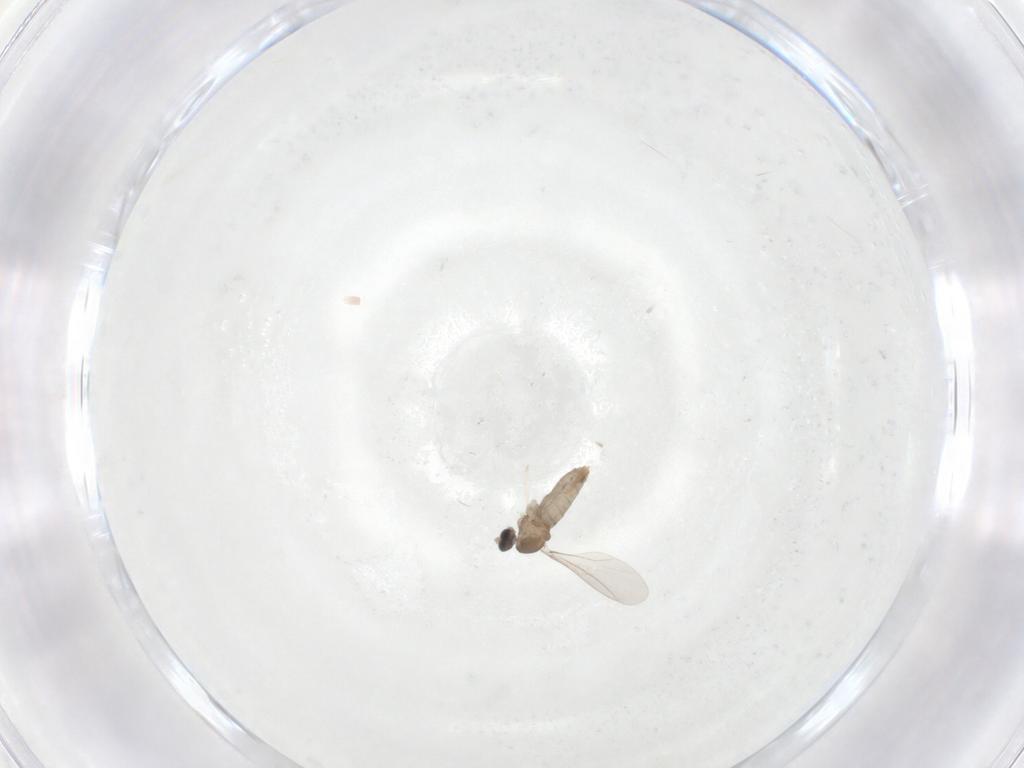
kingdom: Animalia
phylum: Arthropoda
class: Insecta
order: Diptera
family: Cecidomyiidae
